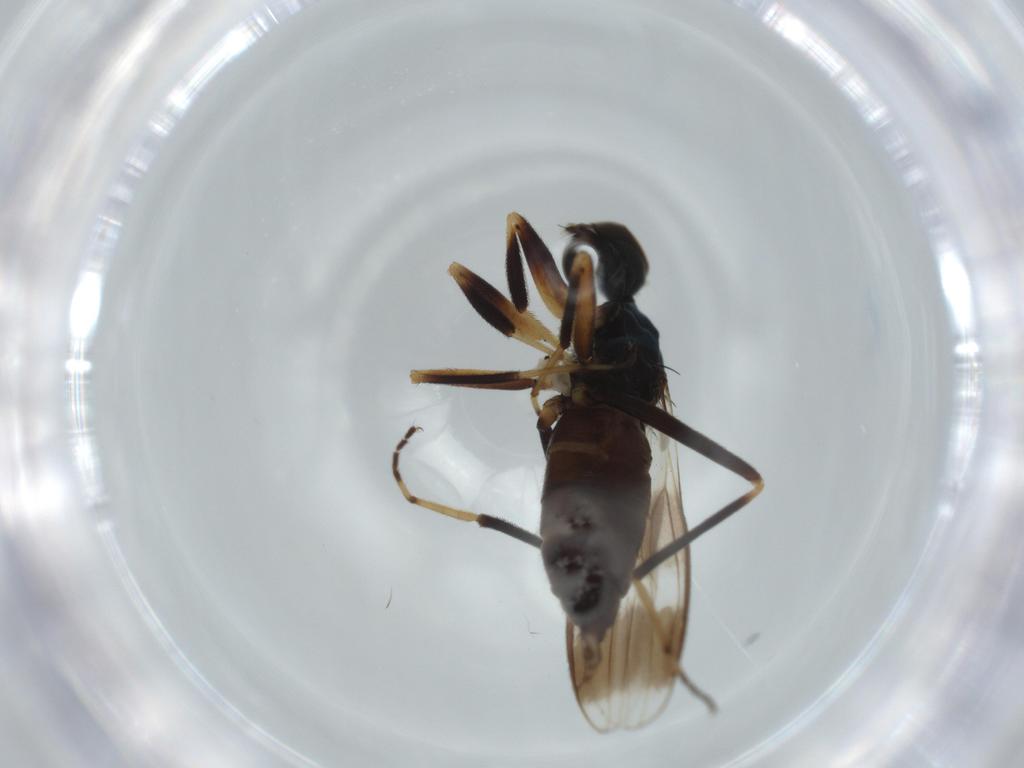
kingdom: Animalia
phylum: Arthropoda
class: Insecta
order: Diptera
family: Hybotidae
